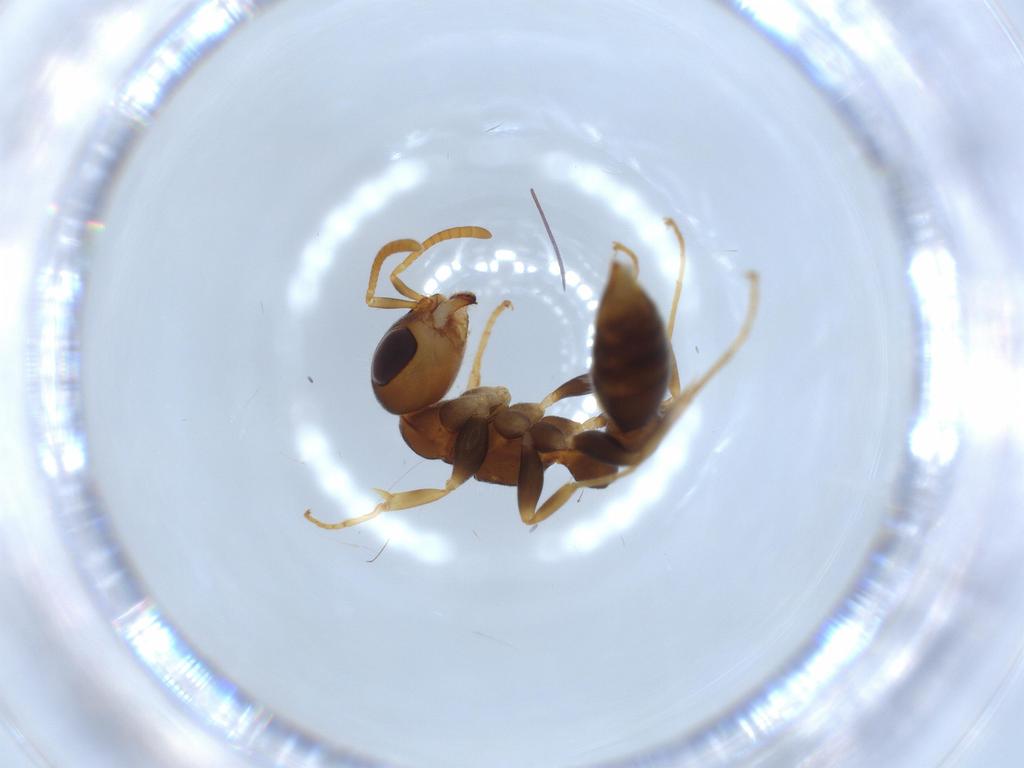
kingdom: Animalia
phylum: Arthropoda
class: Insecta
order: Hymenoptera
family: Formicidae
